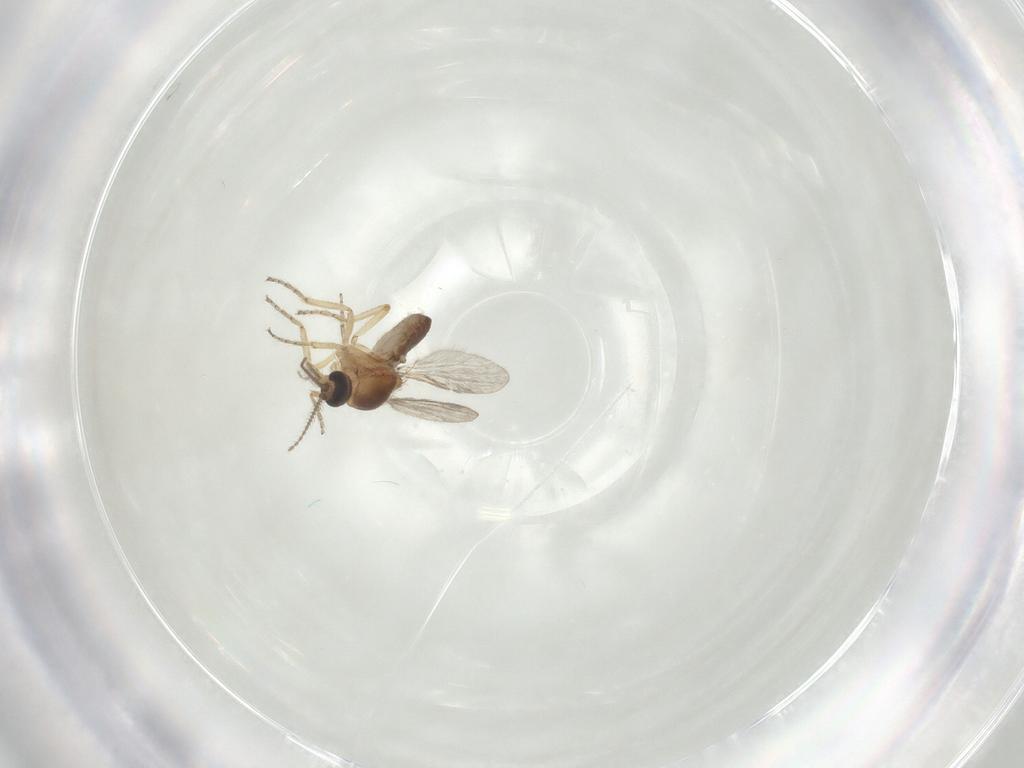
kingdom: Animalia
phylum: Arthropoda
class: Insecta
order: Diptera
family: Ceratopogonidae
